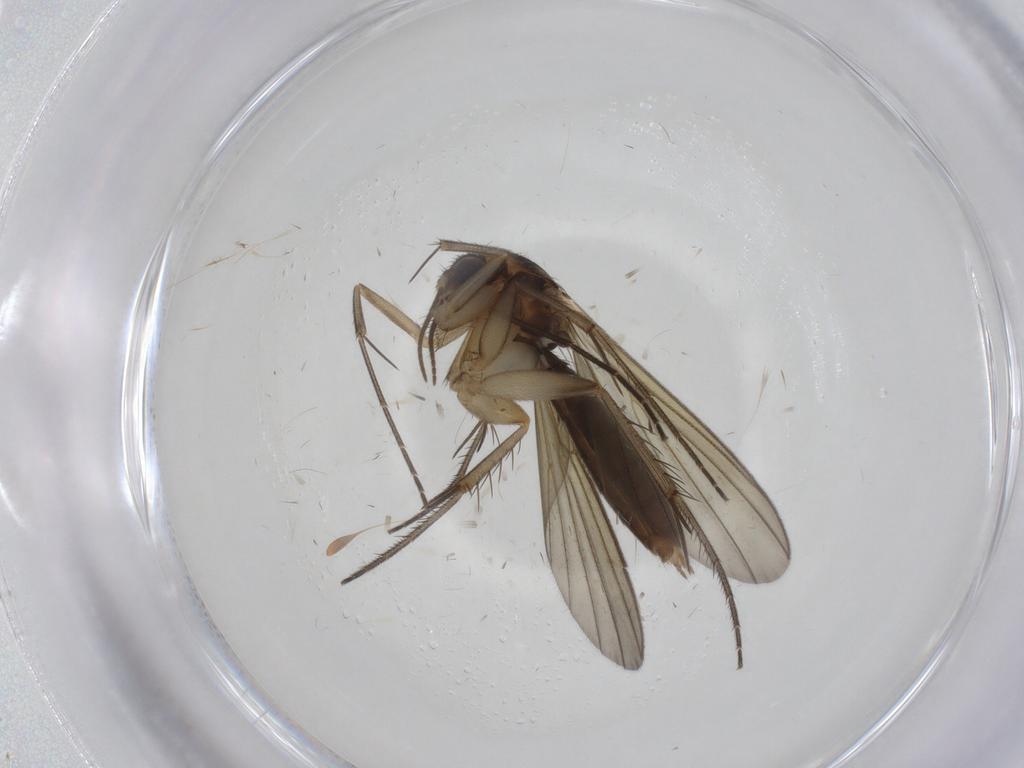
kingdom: Animalia
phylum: Arthropoda
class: Insecta
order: Diptera
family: Mycetophilidae
